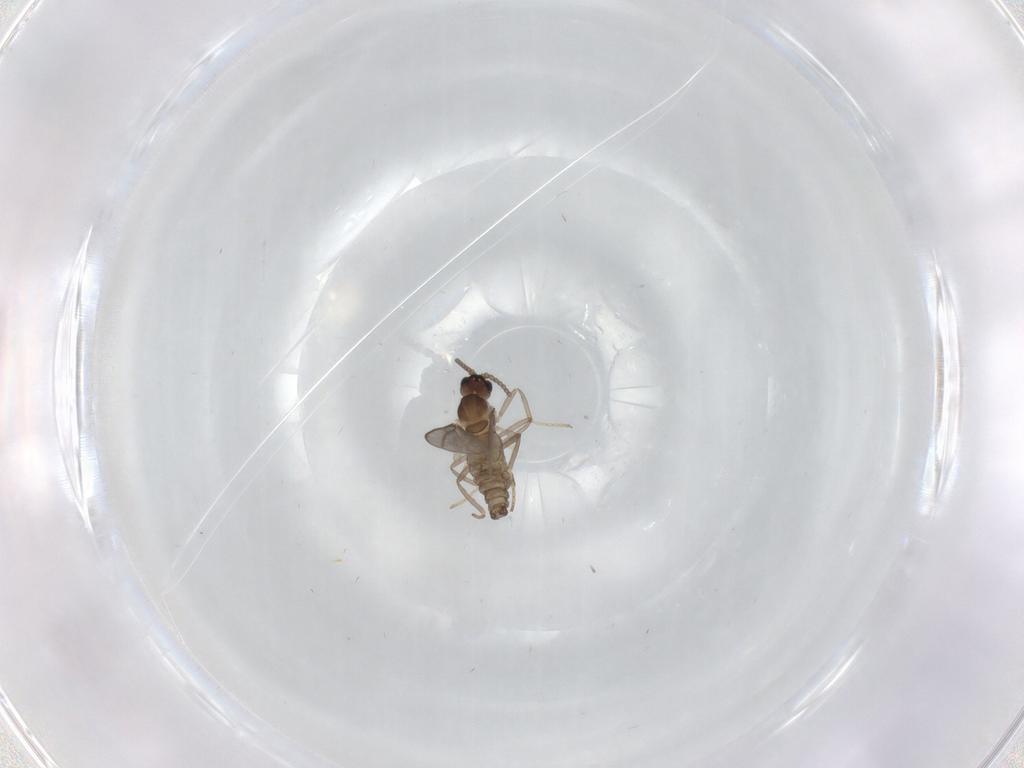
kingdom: Animalia
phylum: Arthropoda
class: Insecta
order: Diptera
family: Cecidomyiidae
